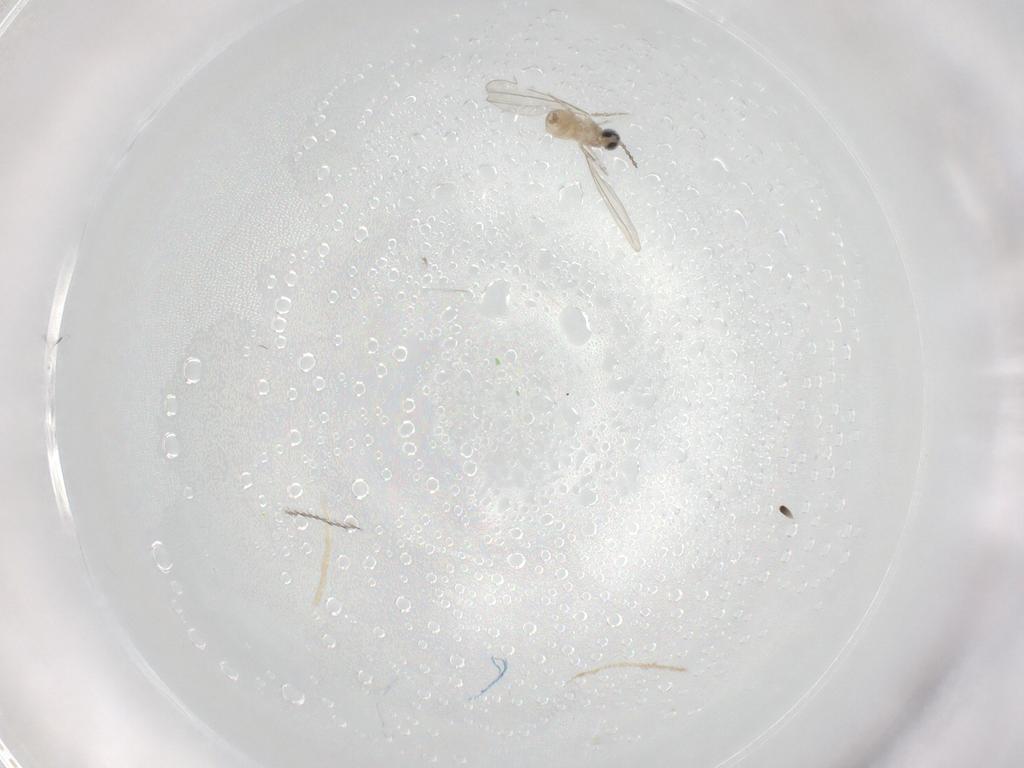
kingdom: Animalia
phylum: Arthropoda
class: Insecta
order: Diptera
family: Cecidomyiidae
